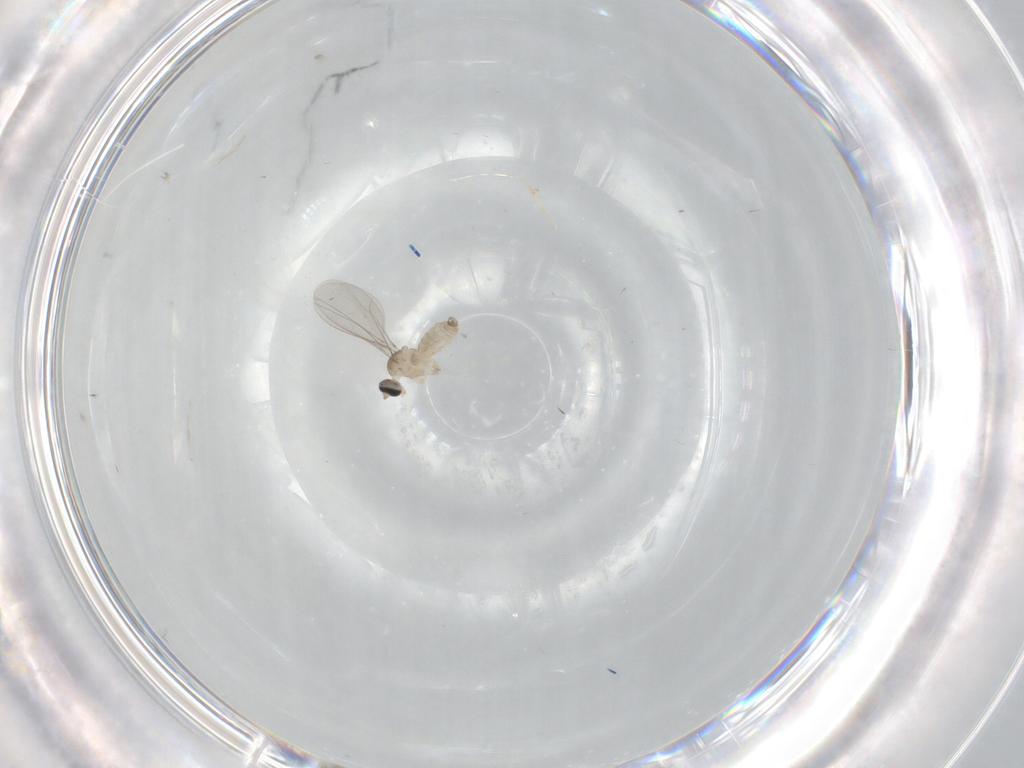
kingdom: Animalia
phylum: Arthropoda
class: Insecta
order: Diptera
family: Cecidomyiidae
